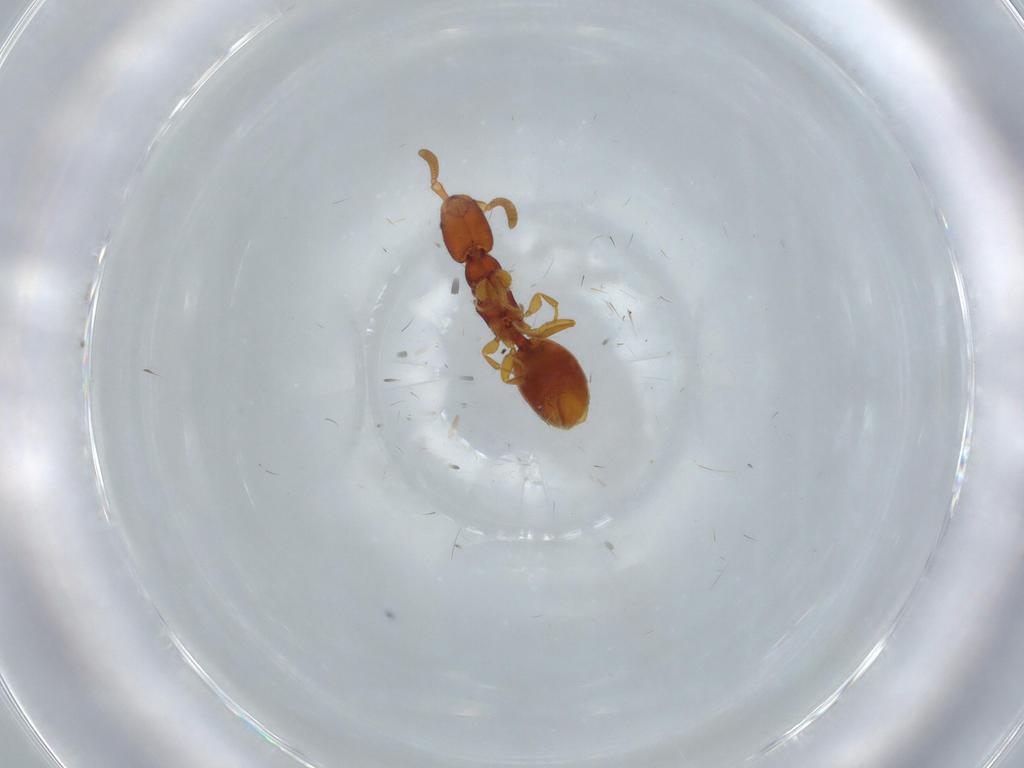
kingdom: Animalia
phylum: Arthropoda
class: Insecta
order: Hymenoptera
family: Bethylidae
